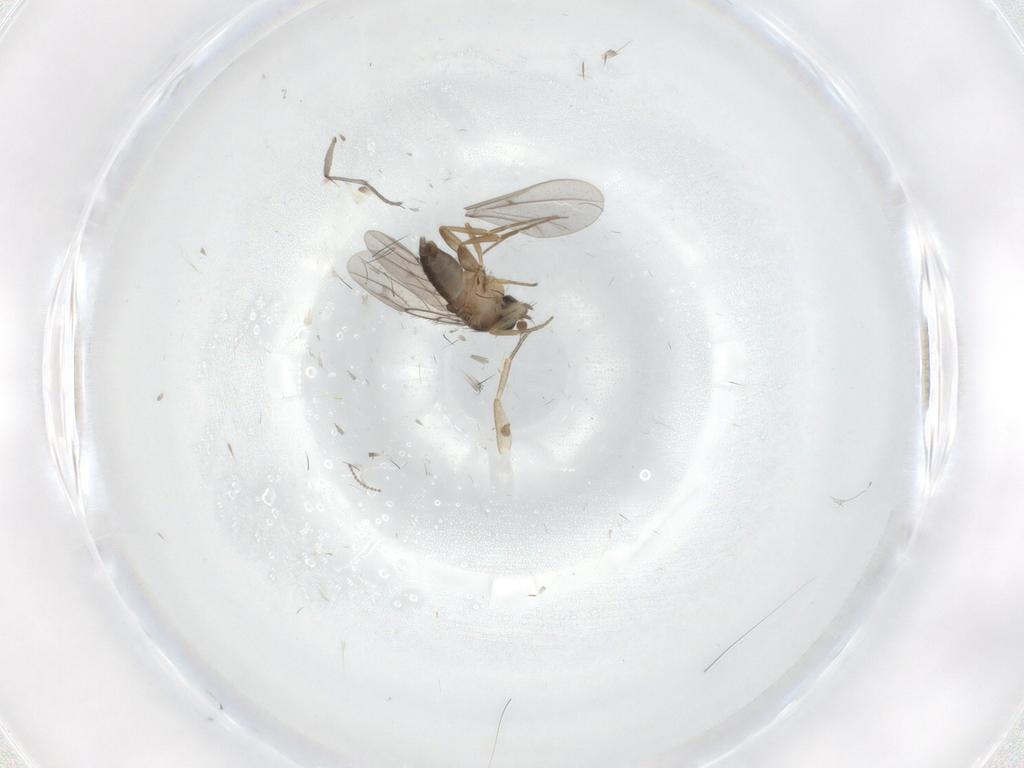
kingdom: Animalia
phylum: Arthropoda
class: Insecta
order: Diptera
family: Sciaridae
